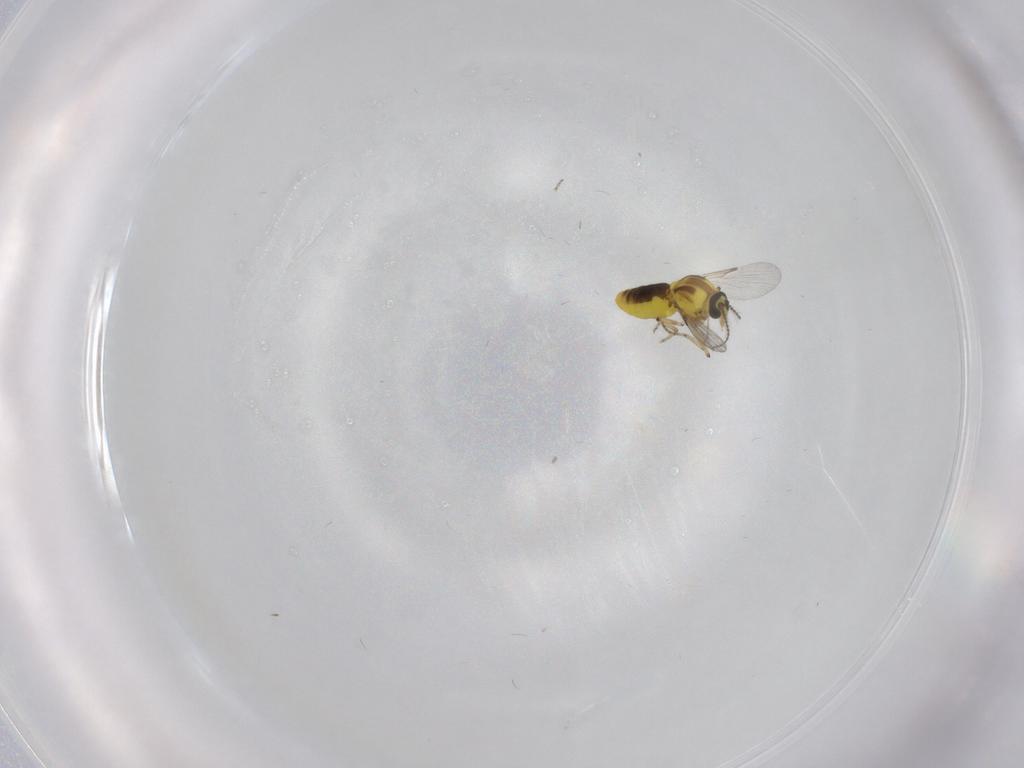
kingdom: Animalia
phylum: Arthropoda
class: Insecta
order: Diptera
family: Ceratopogonidae
